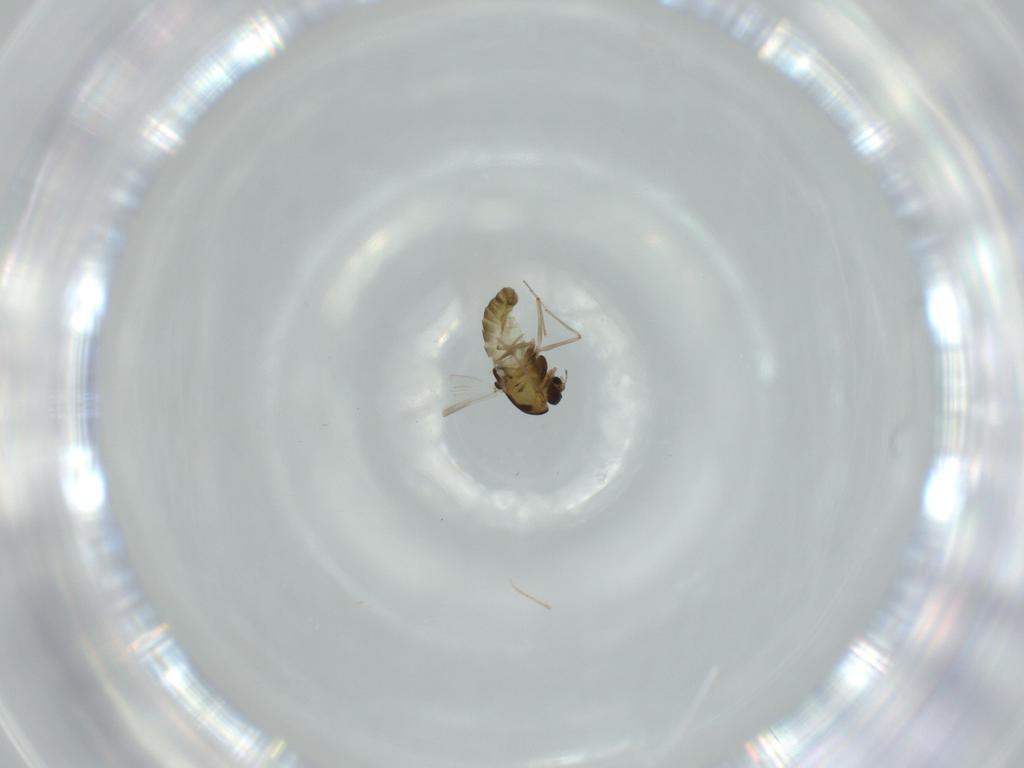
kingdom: Animalia
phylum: Arthropoda
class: Insecta
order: Diptera
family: Chironomidae
